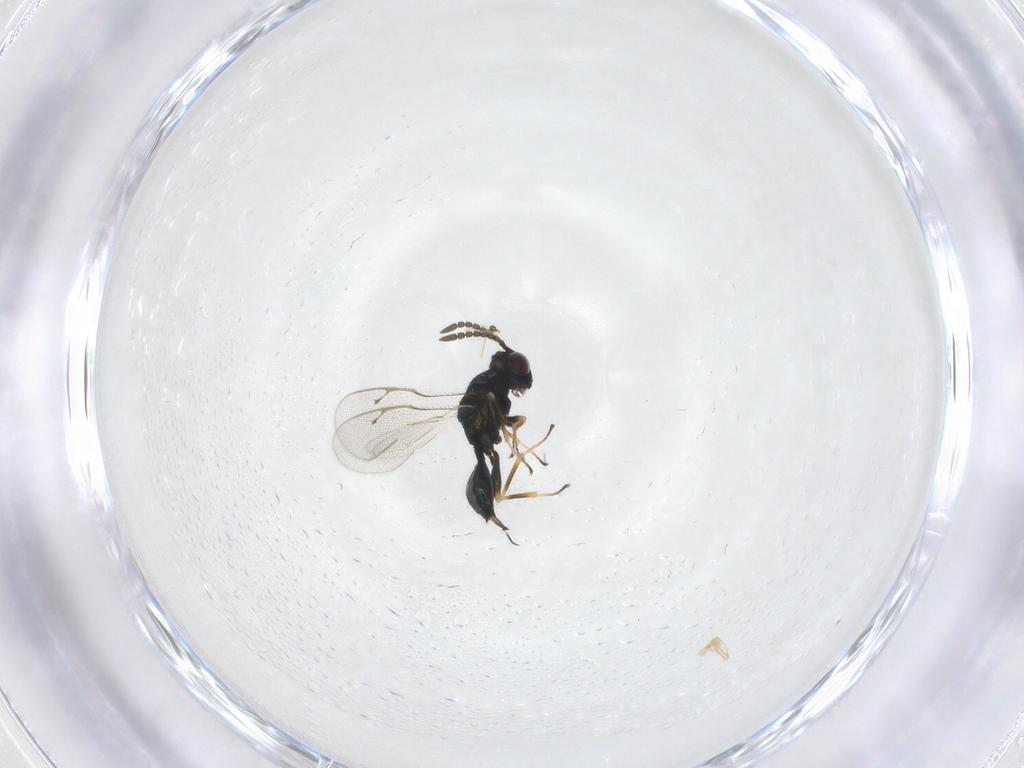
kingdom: Animalia
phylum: Arthropoda
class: Insecta
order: Hymenoptera
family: Pteromalidae
